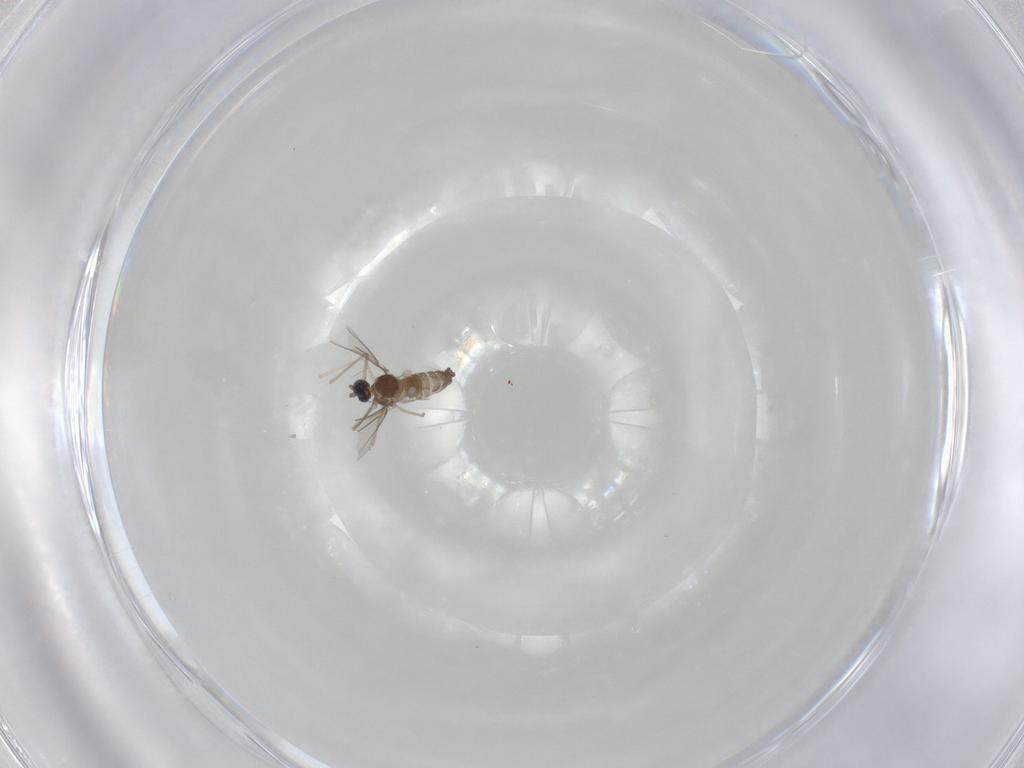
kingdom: Animalia
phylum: Arthropoda
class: Insecta
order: Diptera
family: Cecidomyiidae
